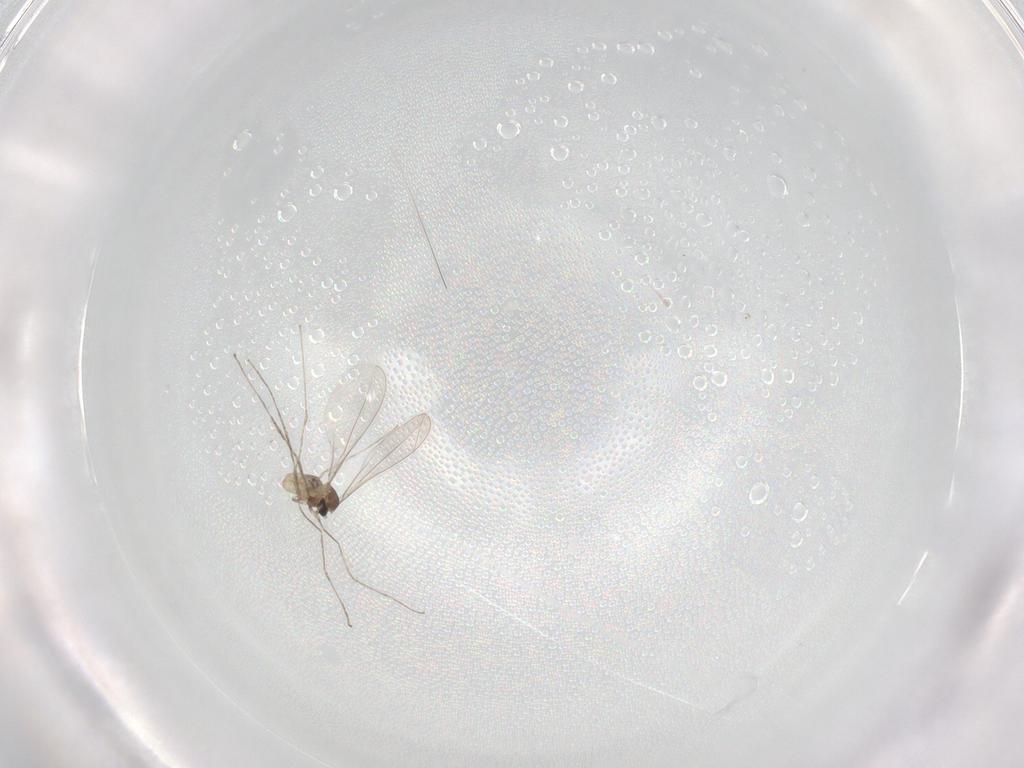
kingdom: Animalia
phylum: Arthropoda
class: Insecta
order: Diptera
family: Cecidomyiidae
